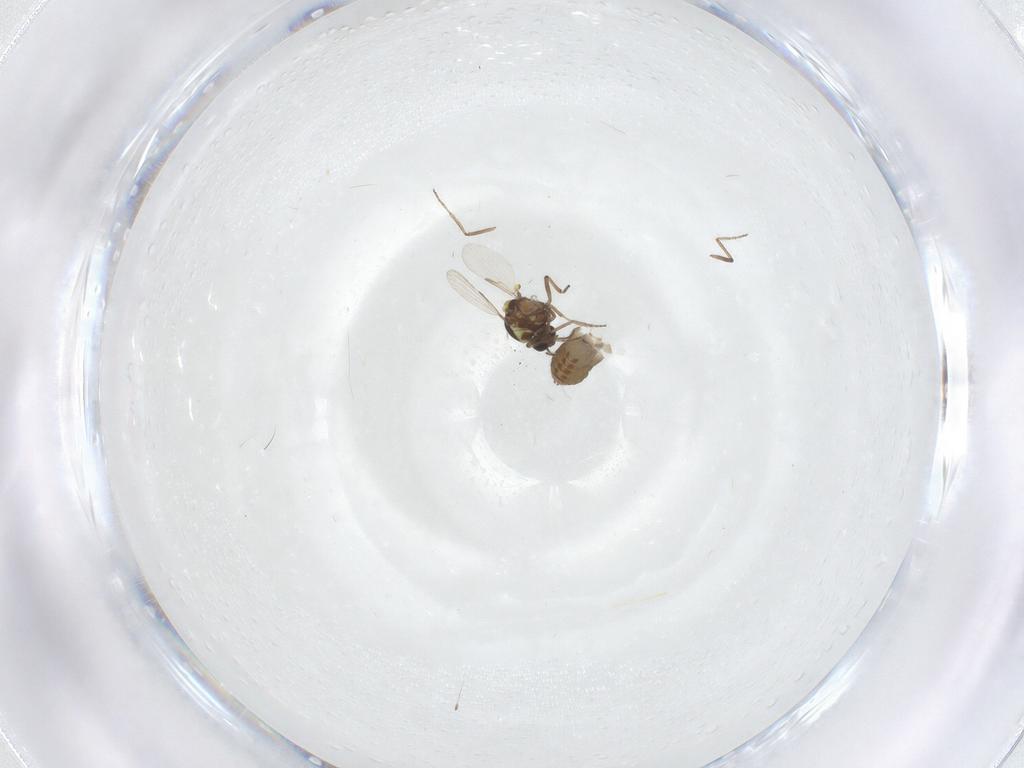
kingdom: Animalia
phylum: Arthropoda
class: Insecta
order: Diptera
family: Ceratopogonidae
